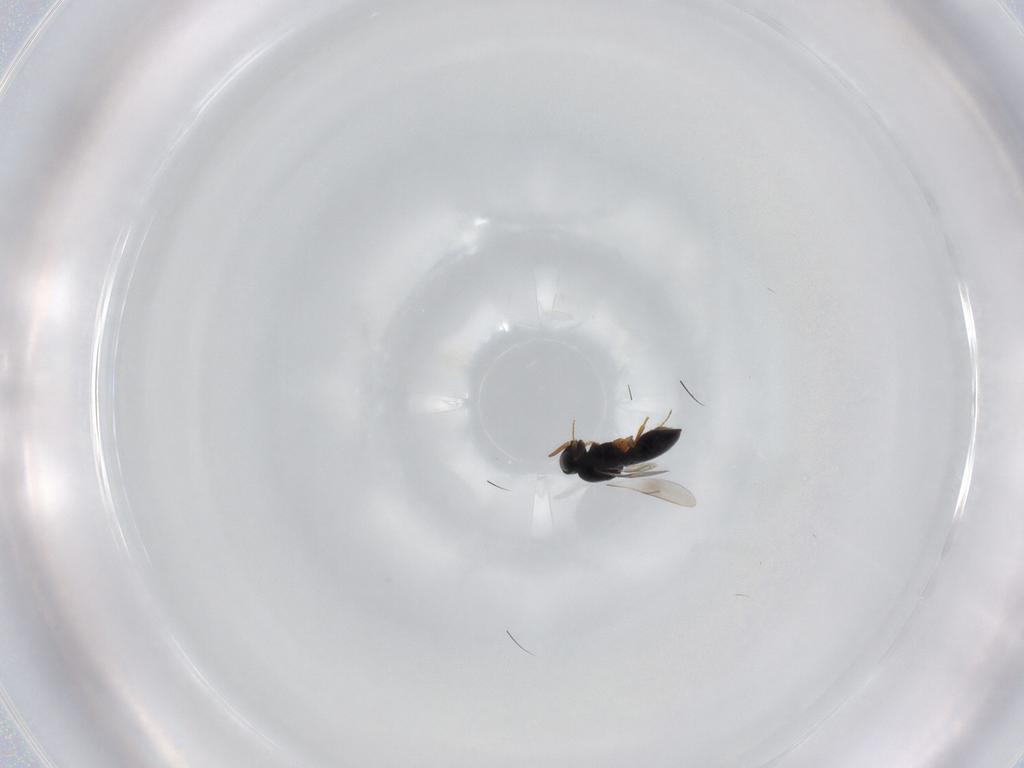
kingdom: Animalia
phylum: Arthropoda
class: Insecta
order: Hymenoptera
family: Scelionidae
